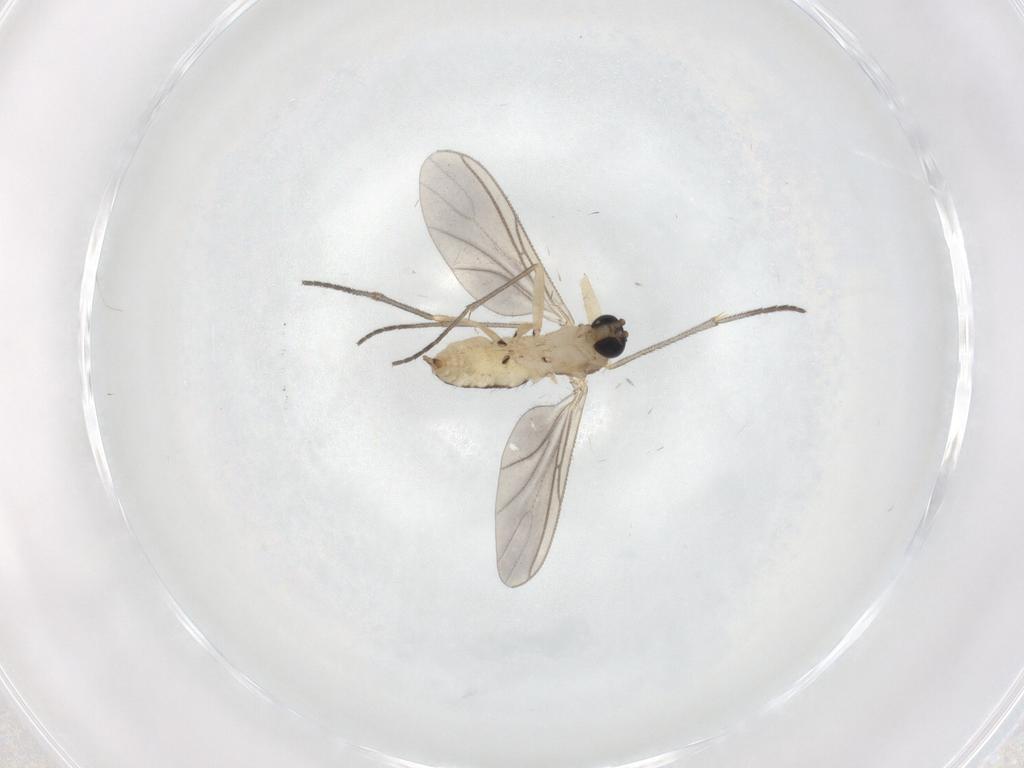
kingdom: Animalia
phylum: Arthropoda
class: Insecta
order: Diptera
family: Sciaridae
